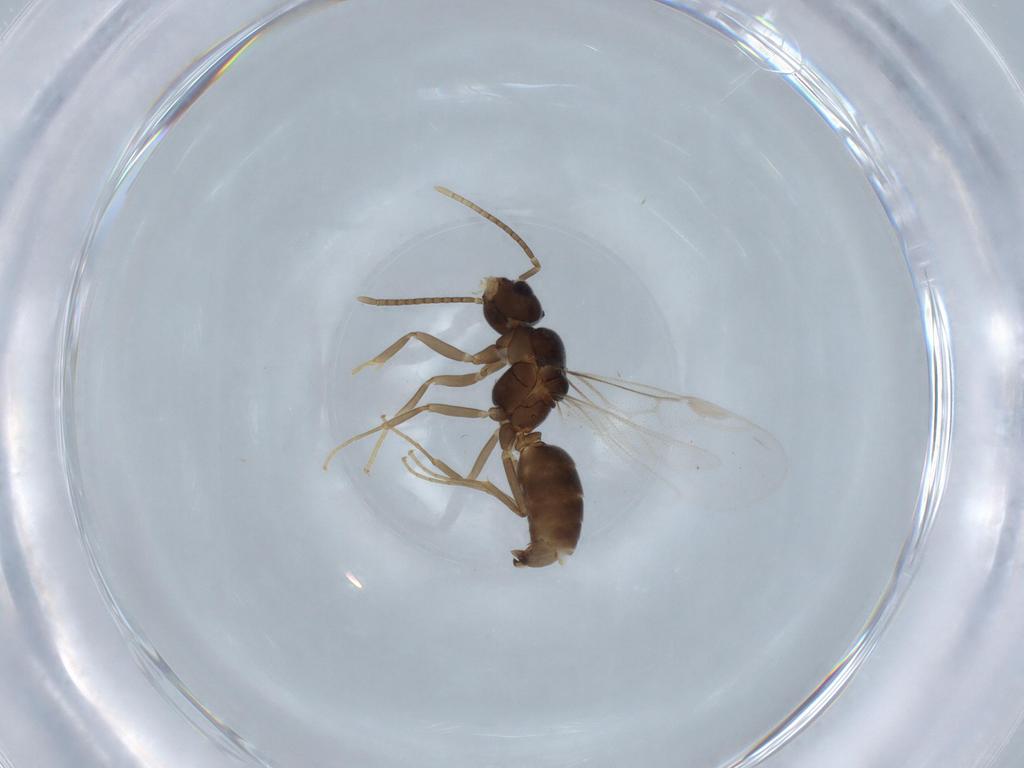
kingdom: Animalia
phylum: Arthropoda
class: Insecta
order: Hymenoptera
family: Formicidae
